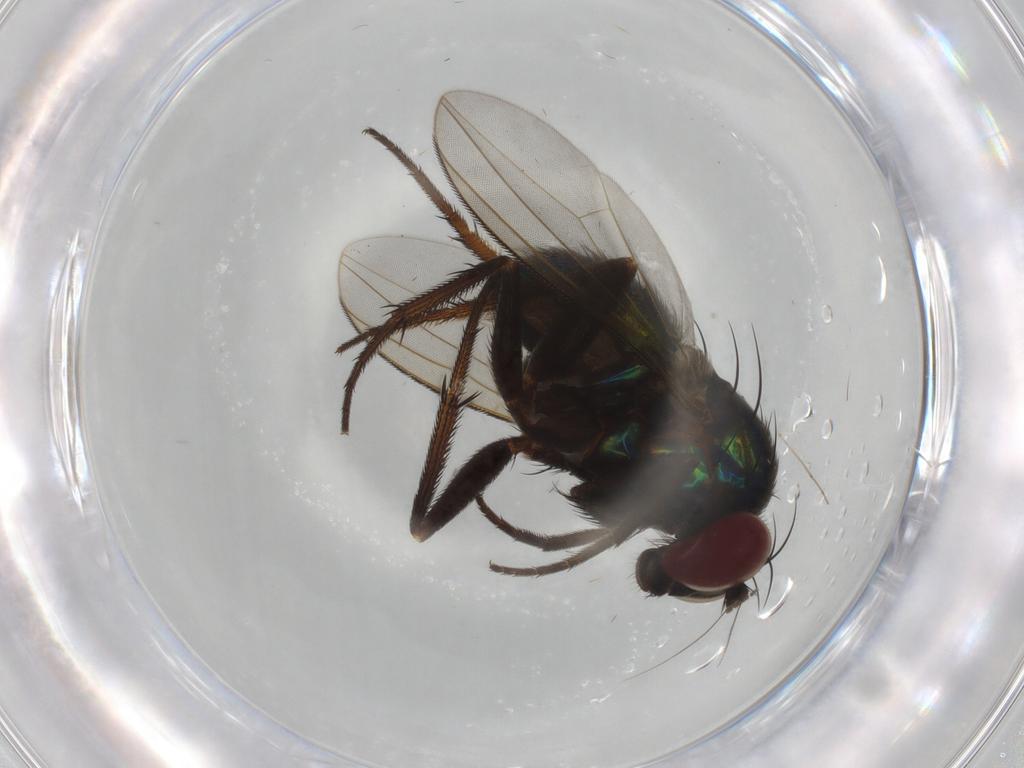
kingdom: Animalia
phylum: Arthropoda
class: Insecta
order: Diptera
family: Dolichopodidae
